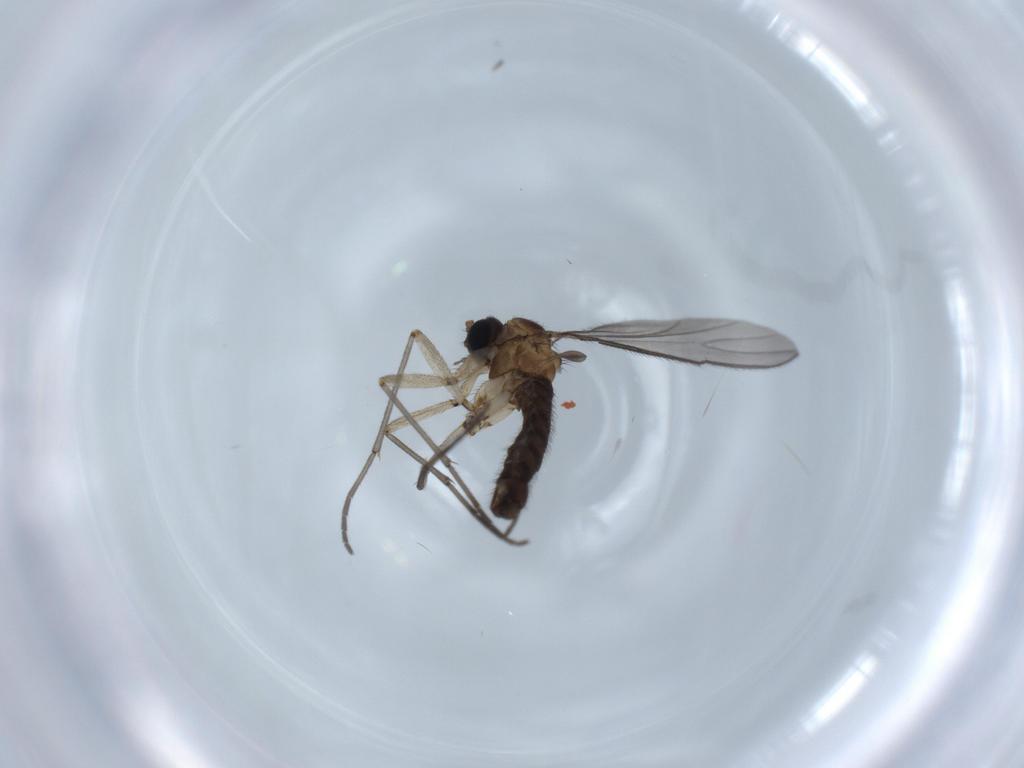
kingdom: Animalia
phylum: Arthropoda
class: Insecta
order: Diptera
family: Sciaridae
